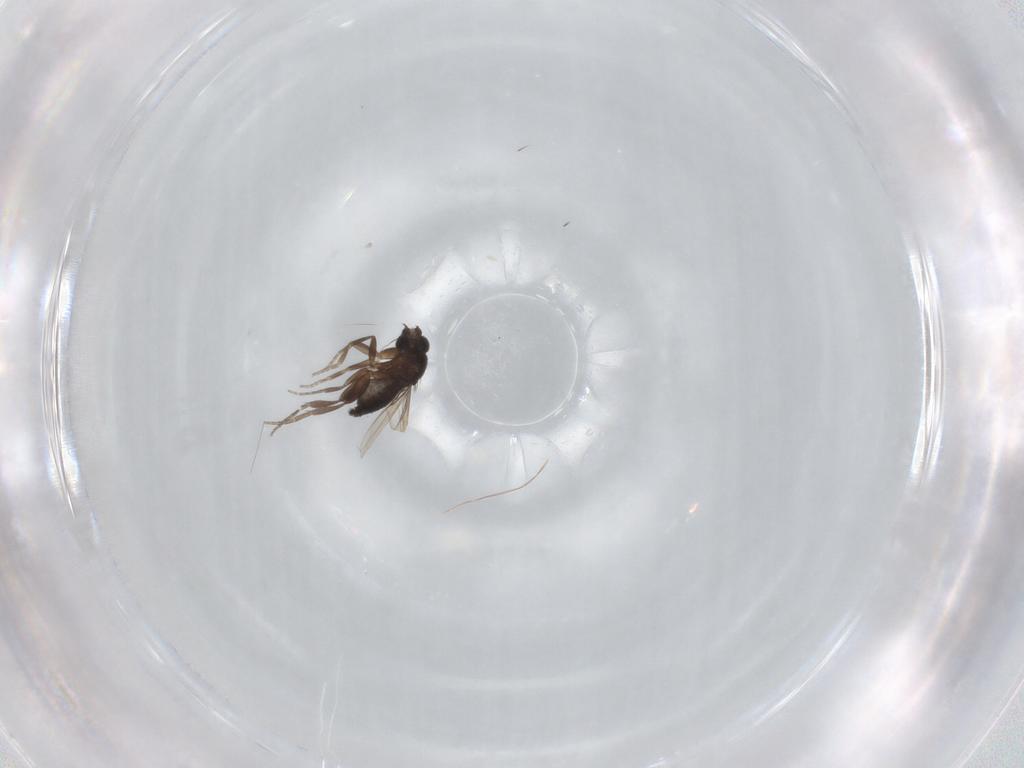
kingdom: Animalia
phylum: Arthropoda
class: Insecta
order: Diptera
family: Phoridae
